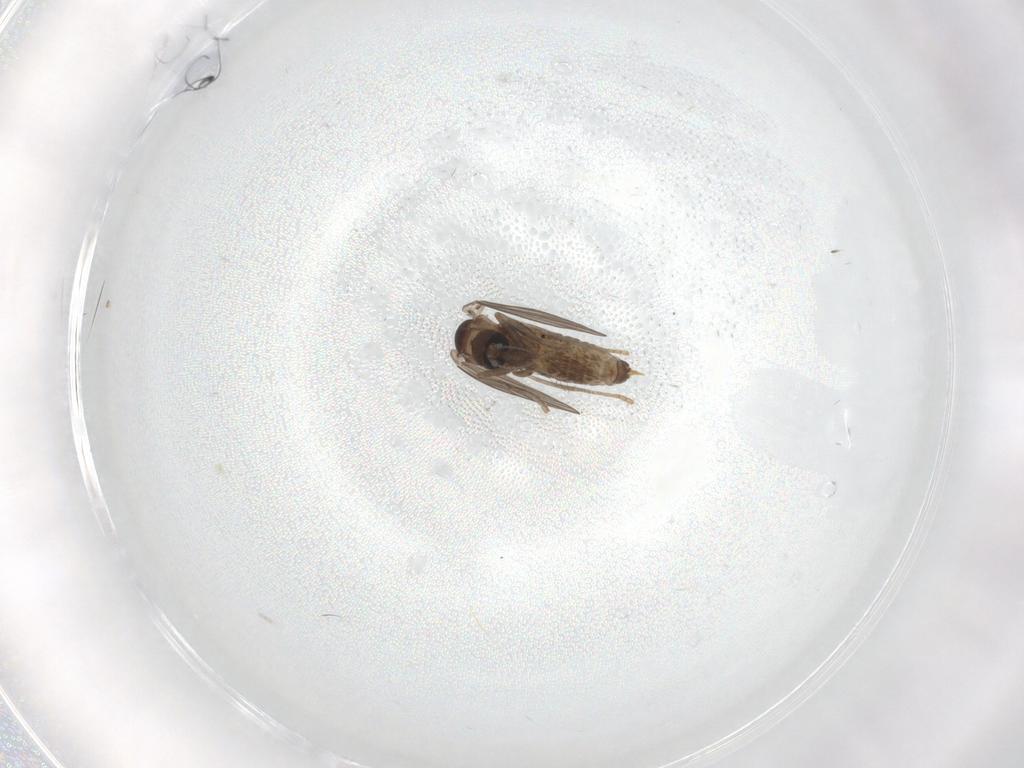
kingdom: Animalia
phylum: Arthropoda
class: Insecta
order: Diptera
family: Psychodidae
